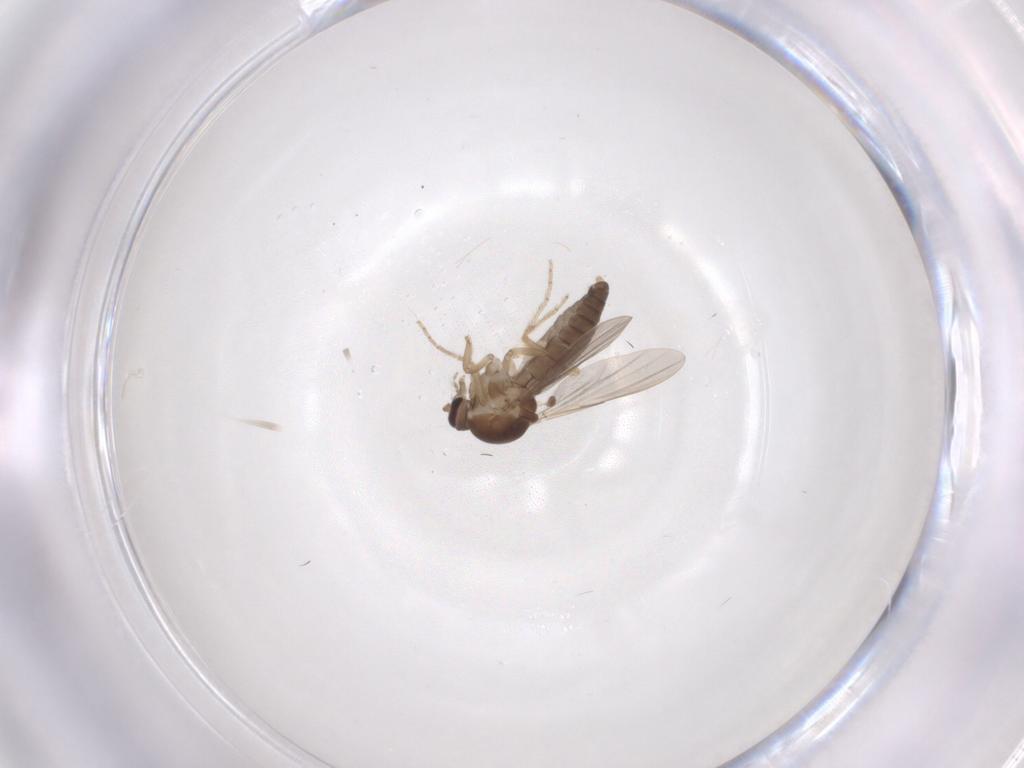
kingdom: Animalia
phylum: Arthropoda
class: Insecta
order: Diptera
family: Ceratopogonidae
